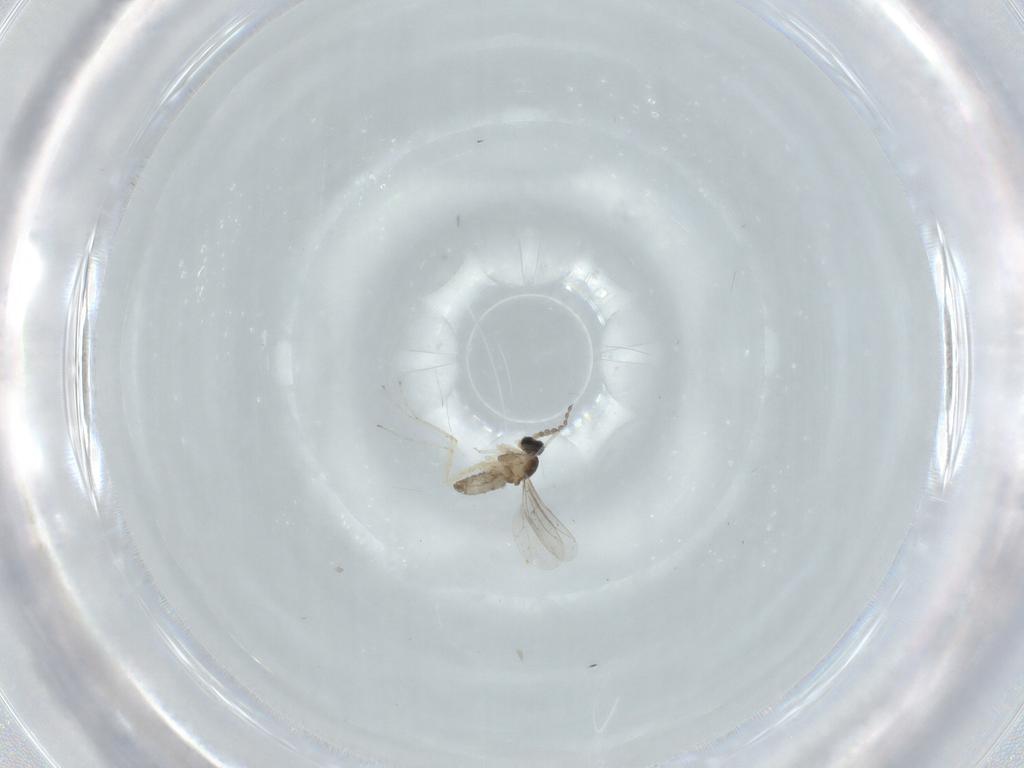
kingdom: Animalia
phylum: Arthropoda
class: Insecta
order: Diptera
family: Cecidomyiidae
